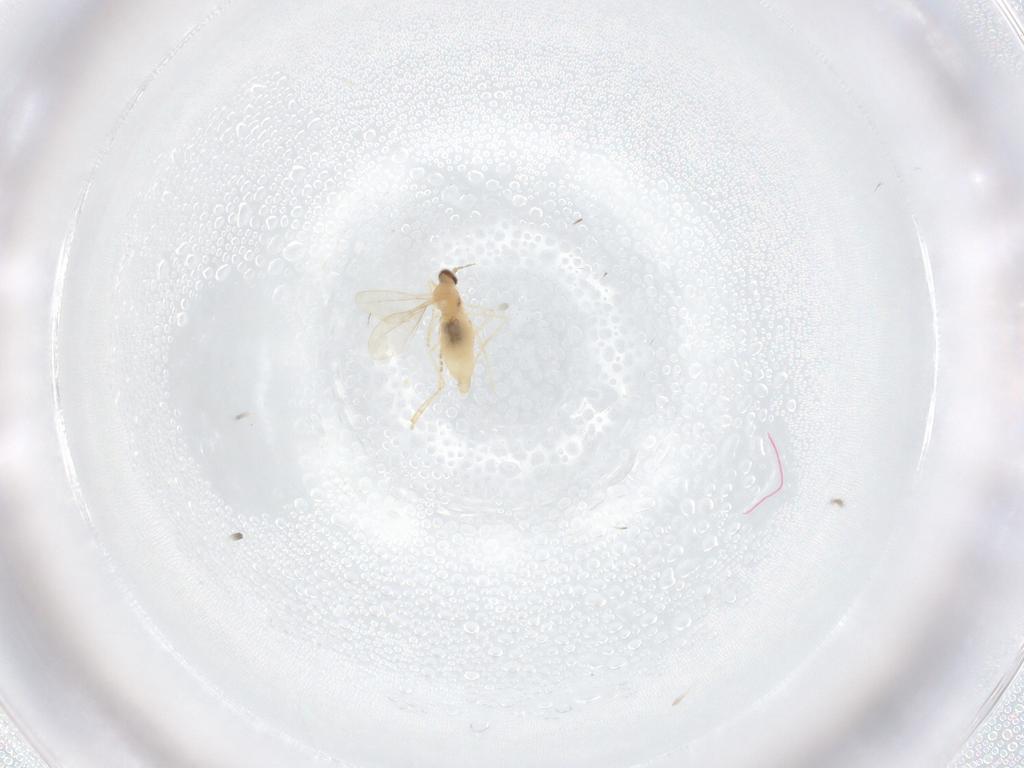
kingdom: Animalia
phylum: Arthropoda
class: Insecta
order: Diptera
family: Cecidomyiidae
